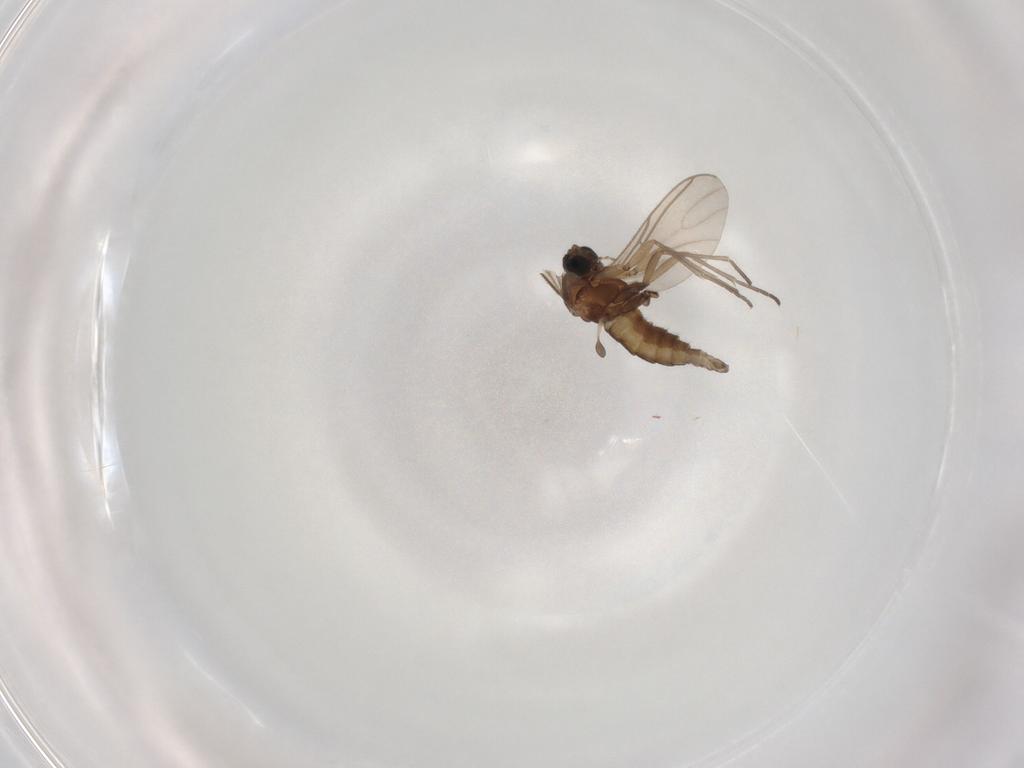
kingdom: Animalia
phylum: Arthropoda
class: Insecta
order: Diptera
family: Sciaridae
